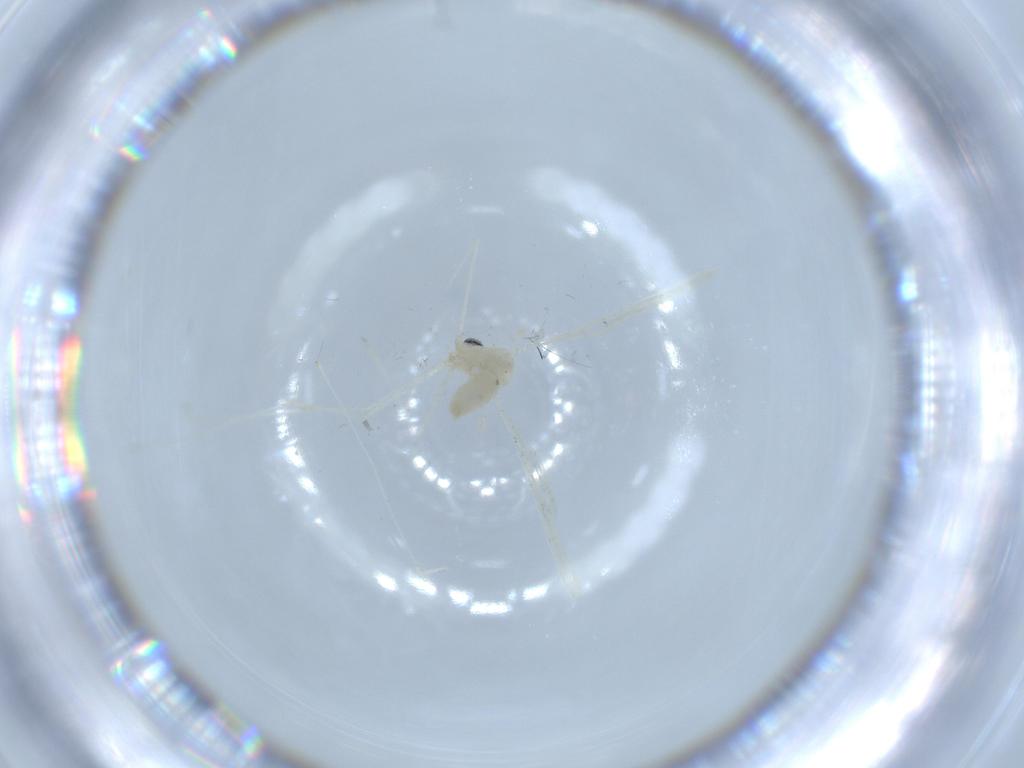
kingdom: Animalia
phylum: Arthropoda
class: Insecta
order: Diptera
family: Cecidomyiidae
